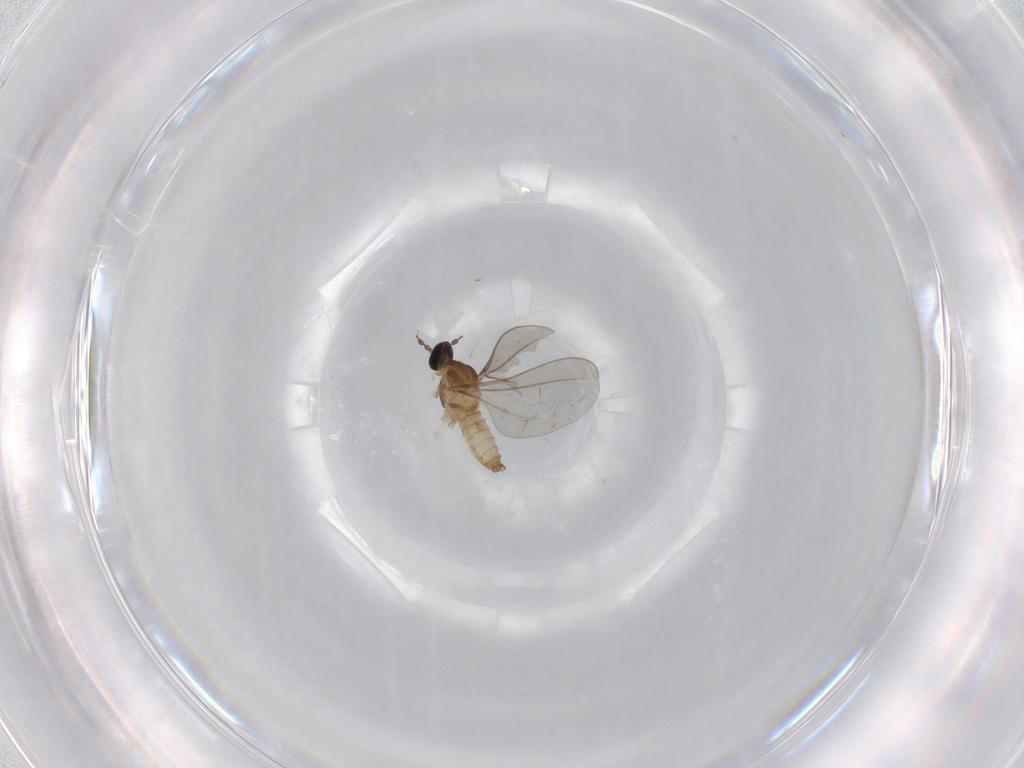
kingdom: Animalia
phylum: Arthropoda
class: Insecta
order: Diptera
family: Cecidomyiidae
